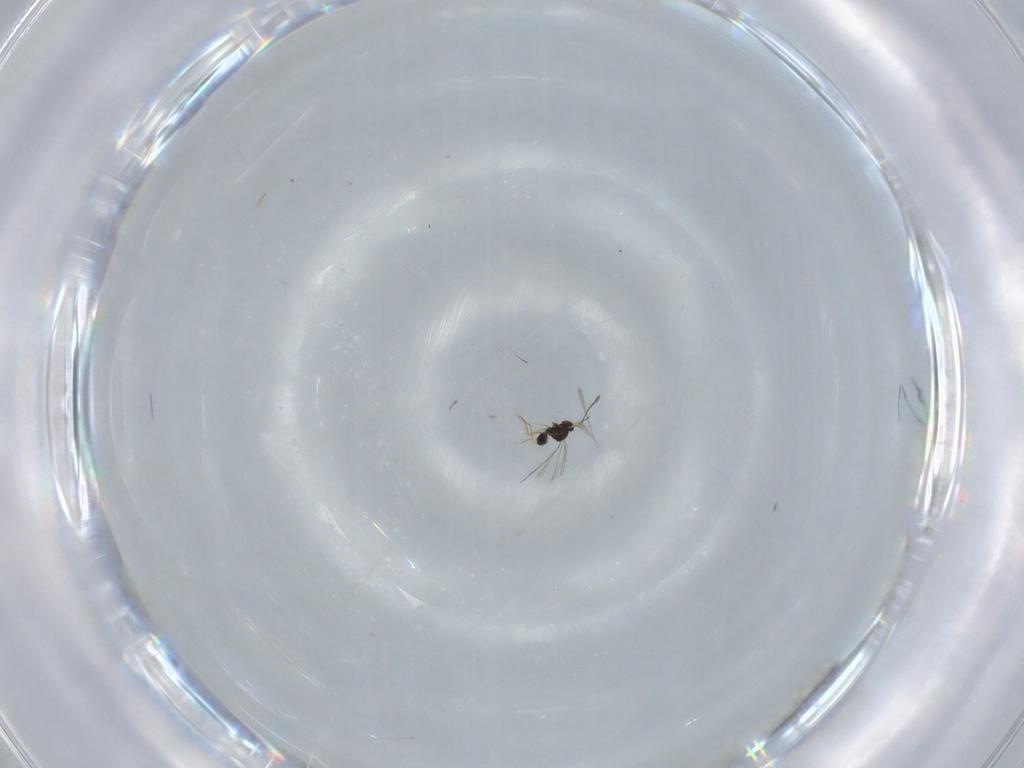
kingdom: Animalia
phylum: Arthropoda
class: Insecta
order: Hymenoptera
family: Mymaridae
